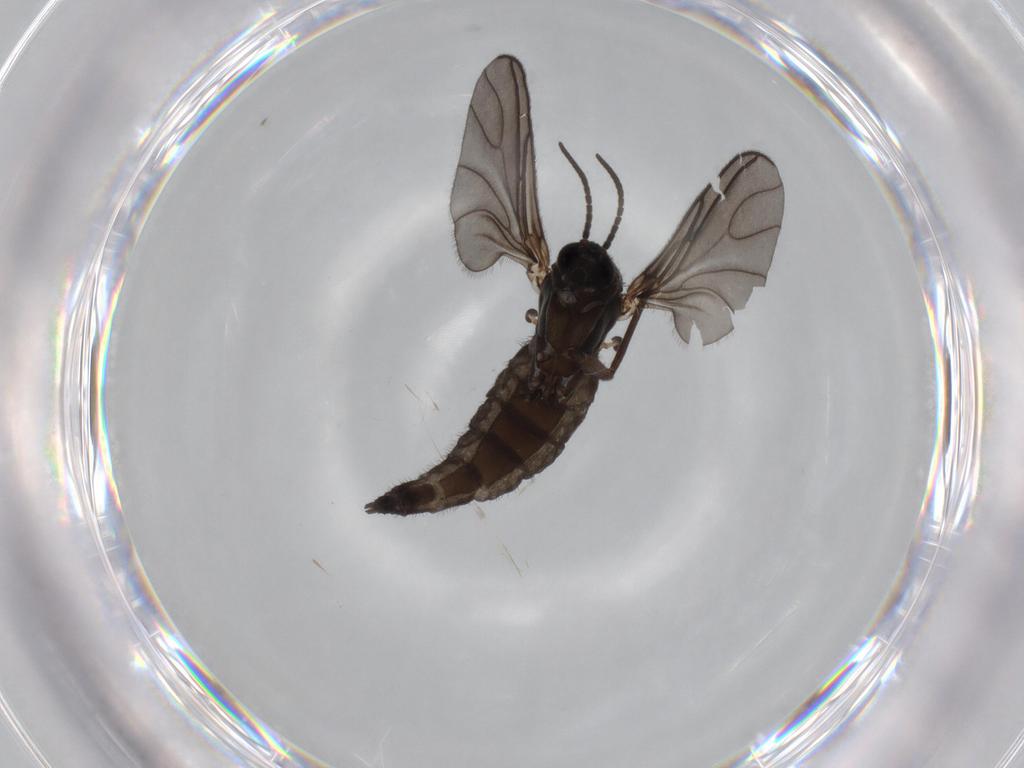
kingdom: Animalia
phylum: Arthropoda
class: Insecta
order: Diptera
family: Sciaridae
